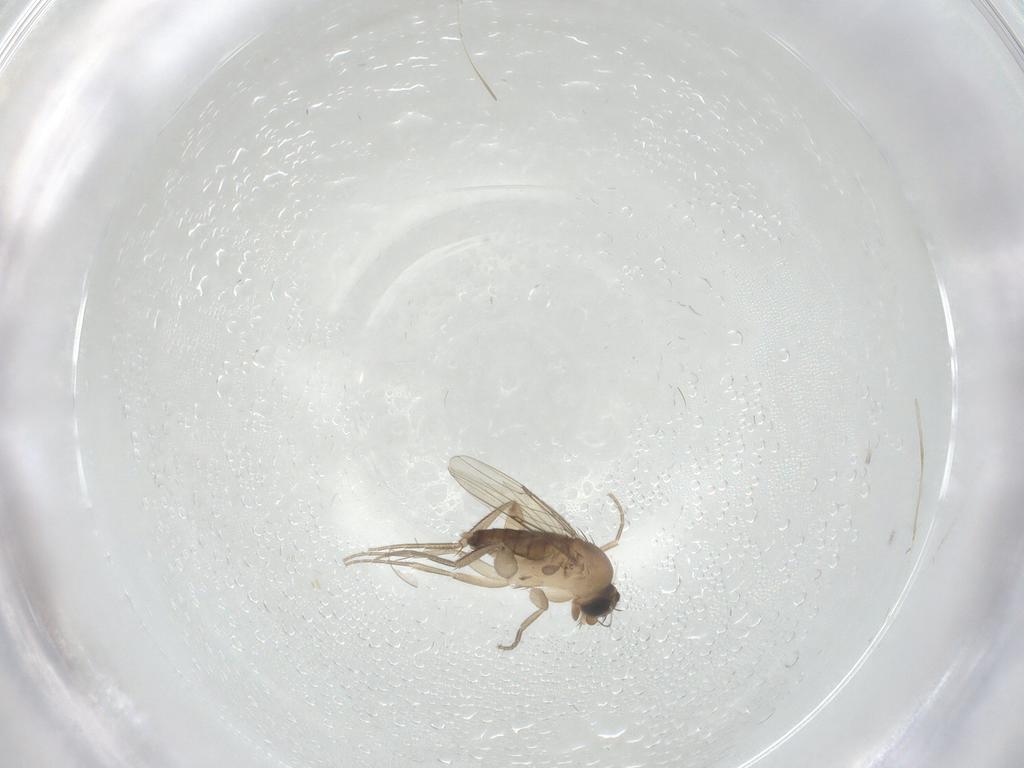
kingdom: Animalia
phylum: Arthropoda
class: Insecta
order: Diptera
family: Phoridae
